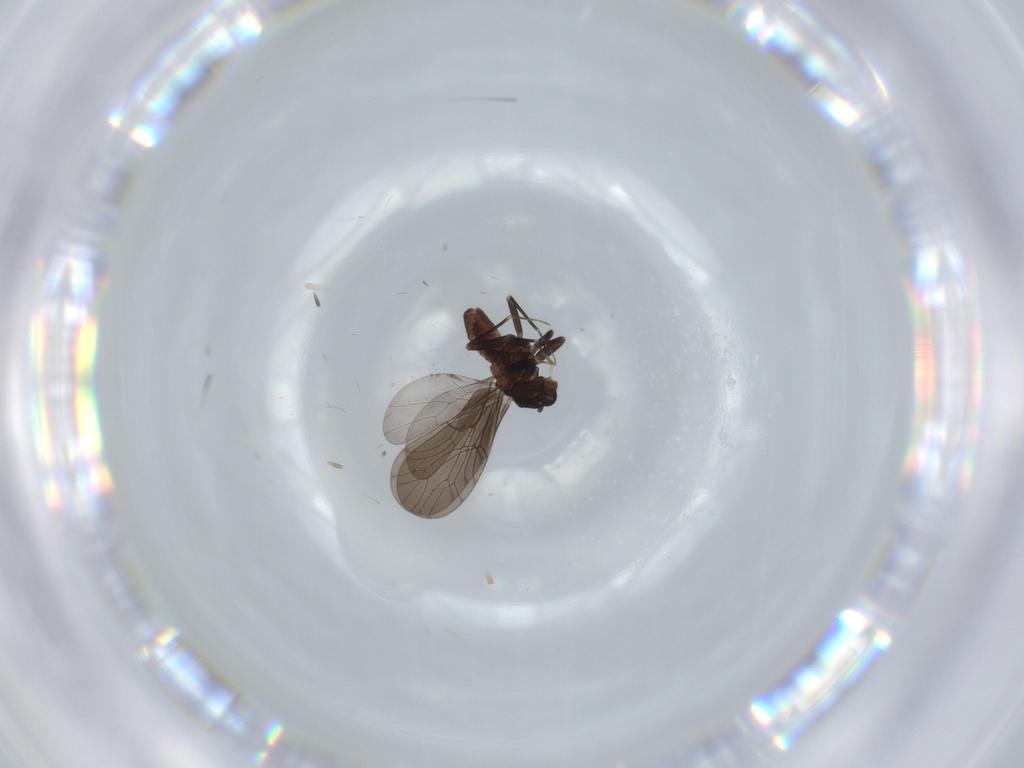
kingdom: Animalia
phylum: Arthropoda
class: Insecta
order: Psocodea
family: Lepidopsocidae
